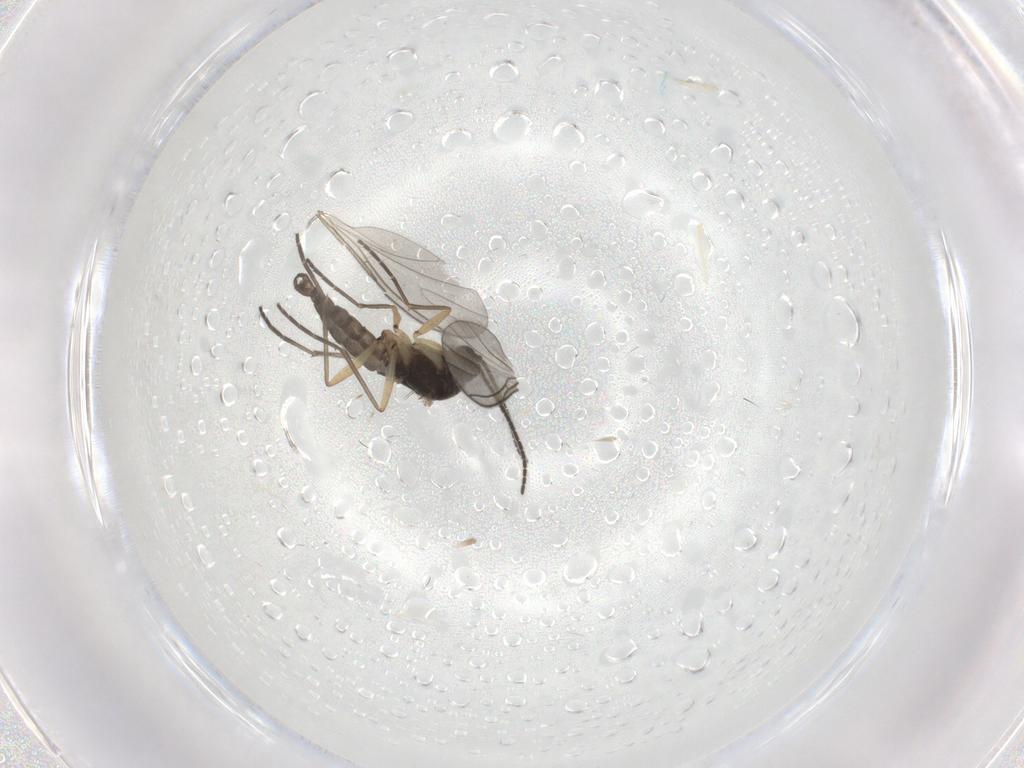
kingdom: Animalia
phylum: Arthropoda
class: Insecta
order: Diptera
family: Sciaridae
